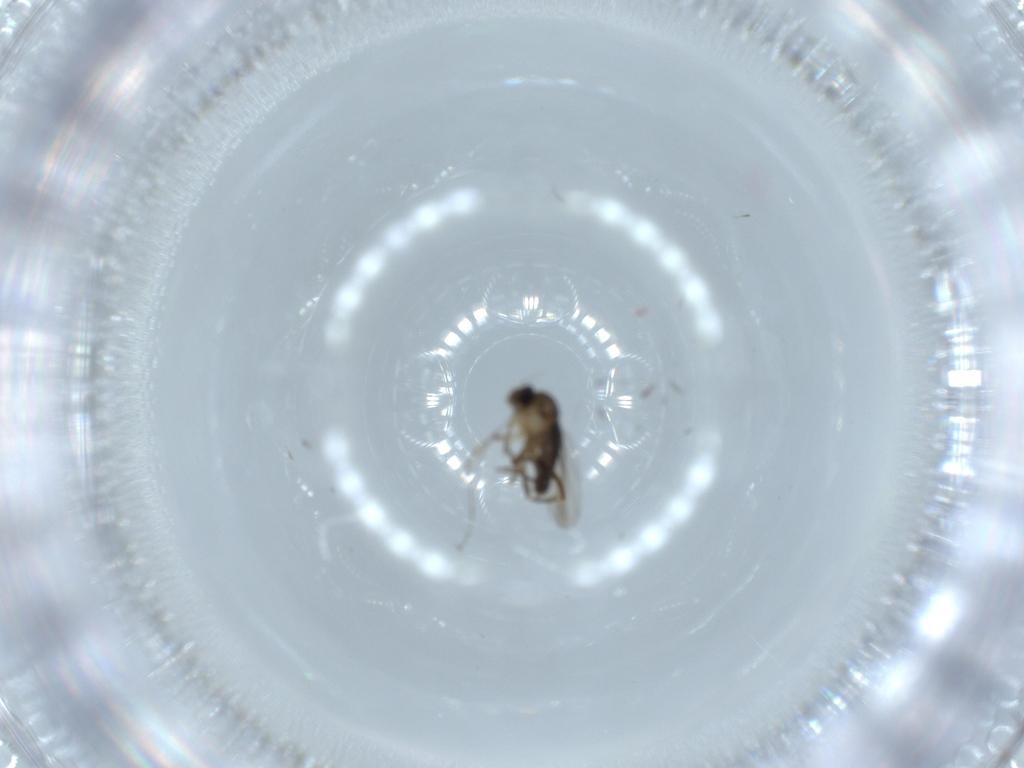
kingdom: Animalia
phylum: Arthropoda
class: Insecta
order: Diptera
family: Phoridae
